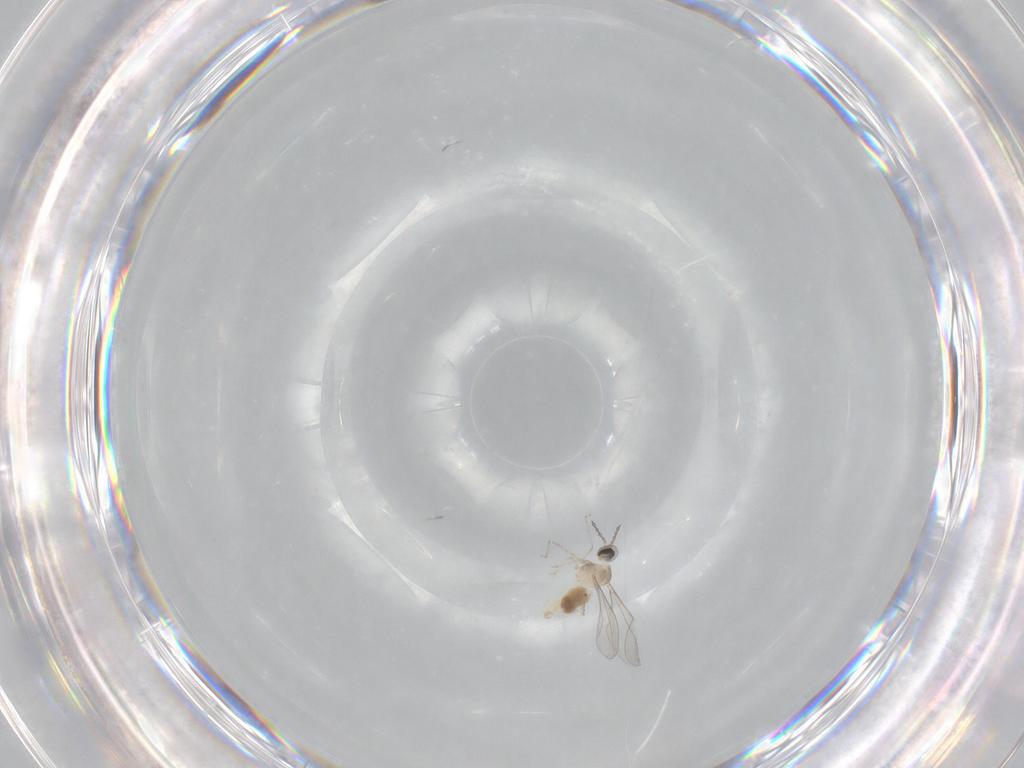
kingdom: Animalia
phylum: Arthropoda
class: Insecta
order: Diptera
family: Cecidomyiidae
